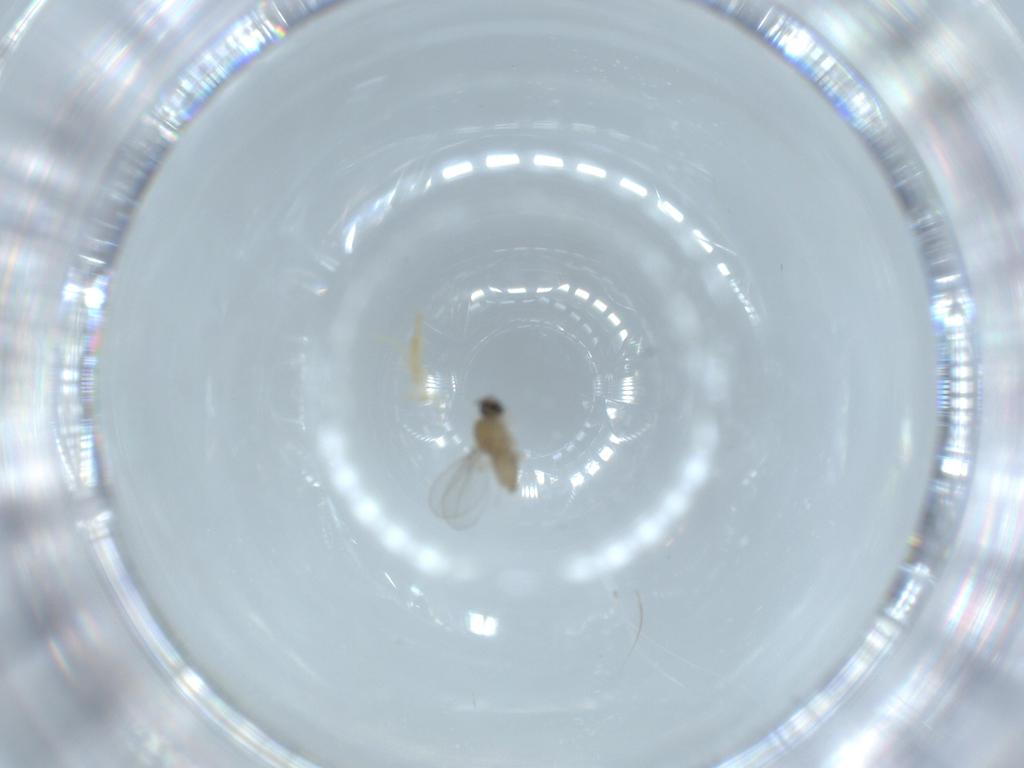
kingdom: Animalia
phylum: Arthropoda
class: Insecta
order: Diptera
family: Cecidomyiidae
